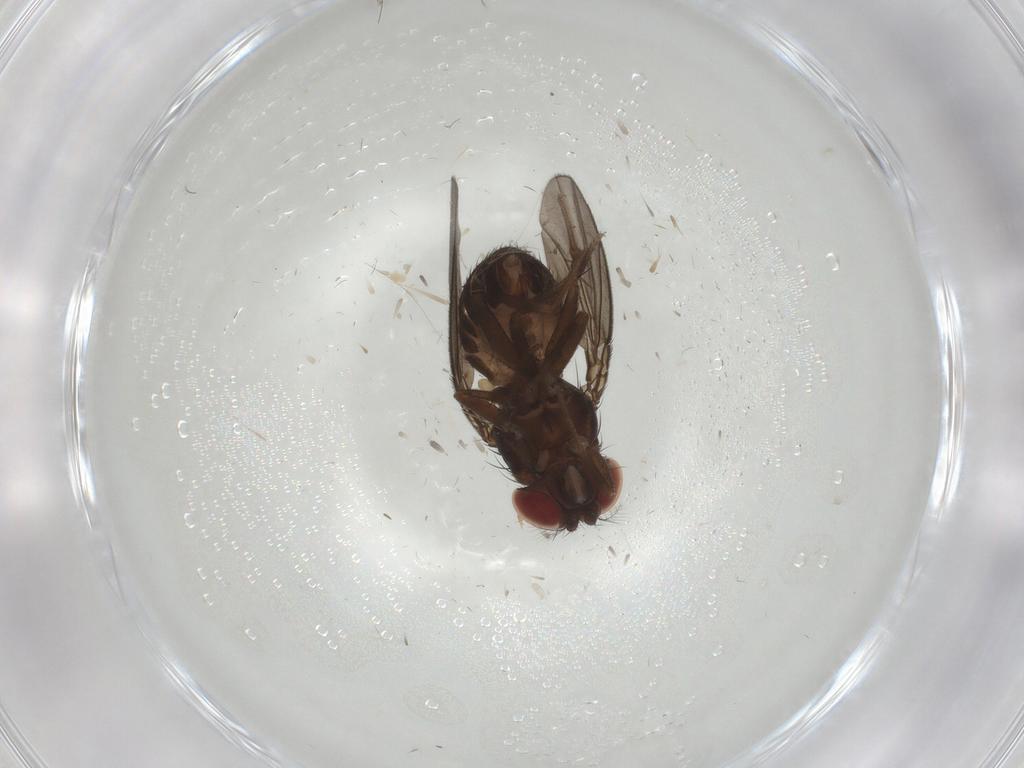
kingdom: Animalia
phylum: Arthropoda
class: Insecta
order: Diptera
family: Drosophilidae
